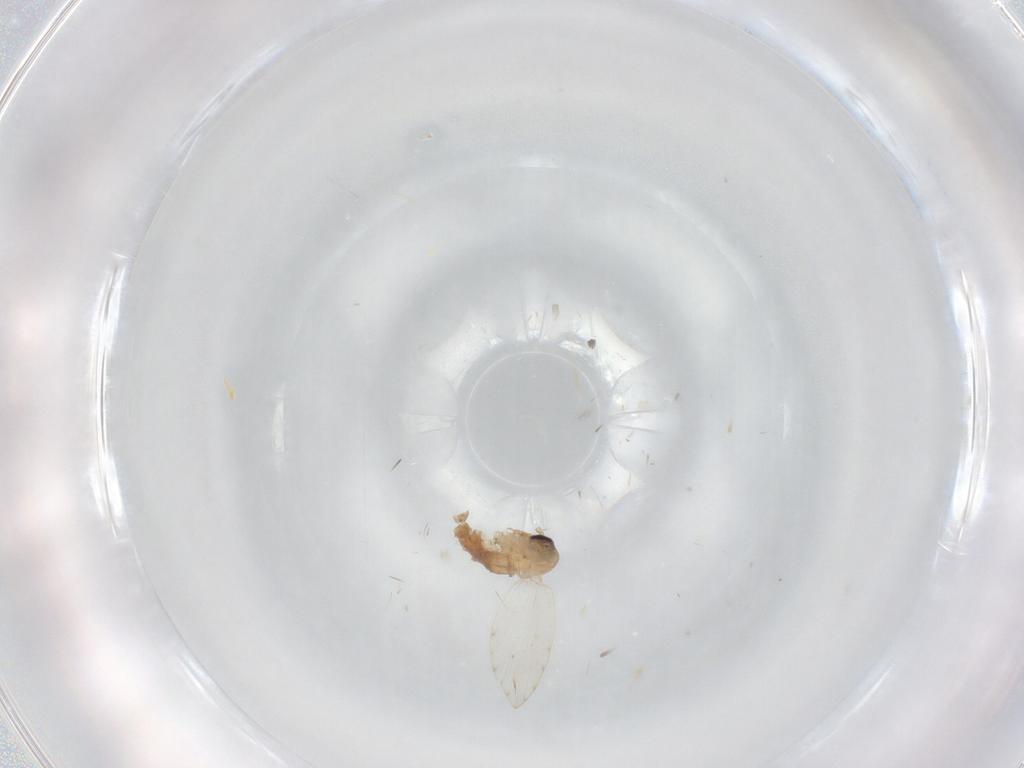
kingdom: Animalia
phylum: Arthropoda
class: Insecta
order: Diptera
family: Psychodidae
